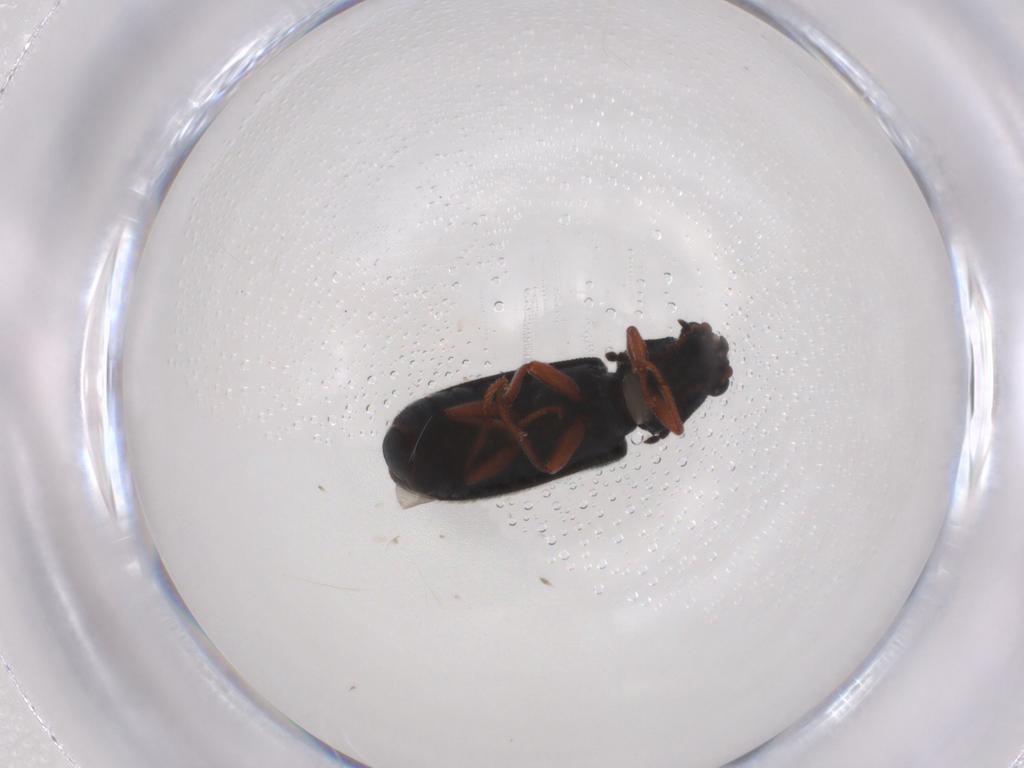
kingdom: Animalia
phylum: Arthropoda
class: Insecta
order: Coleoptera
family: Melyridae
